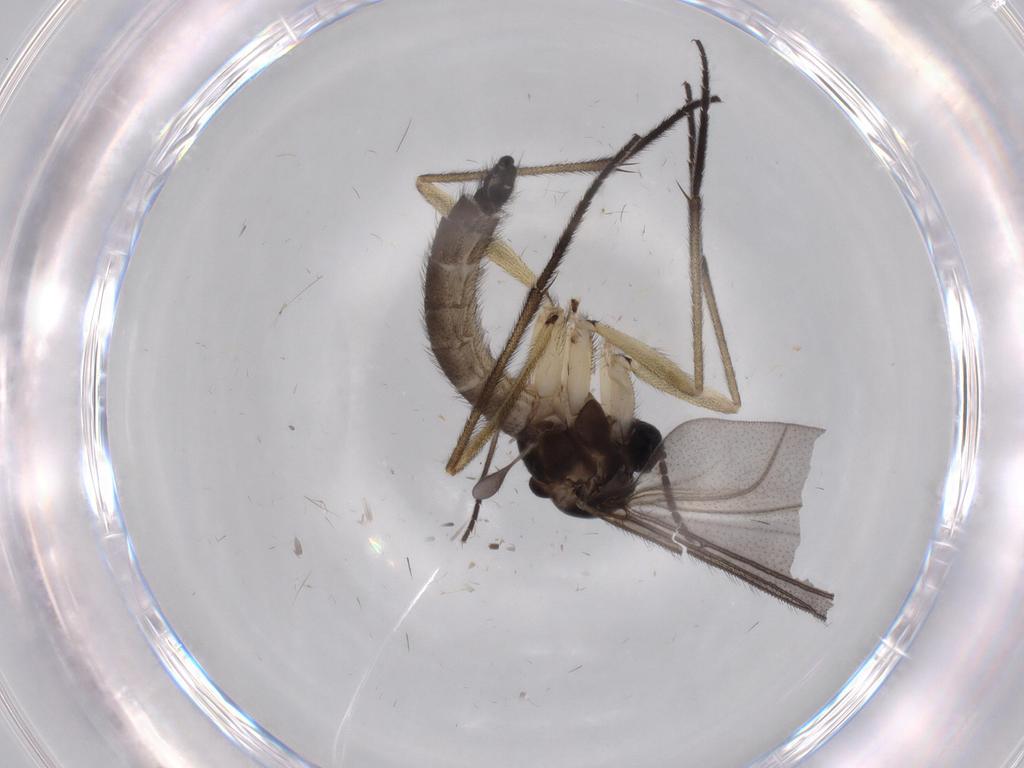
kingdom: Animalia
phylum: Arthropoda
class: Insecta
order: Diptera
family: Sciaridae
